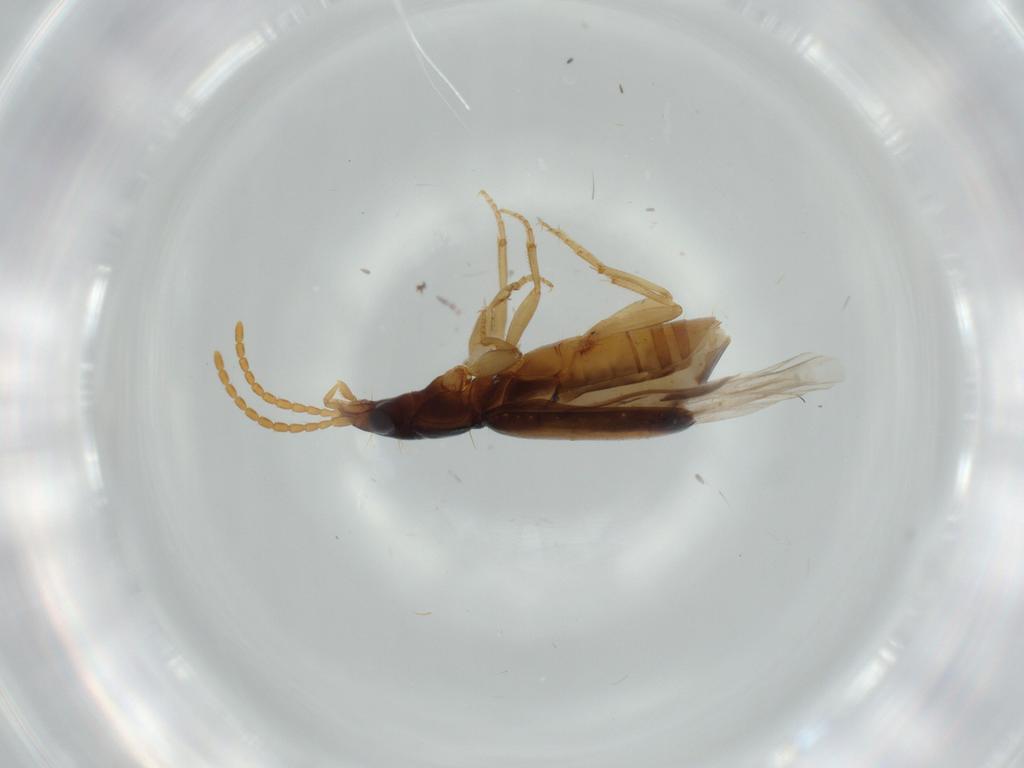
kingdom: Animalia
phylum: Arthropoda
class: Insecta
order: Coleoptera
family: Carabidae
